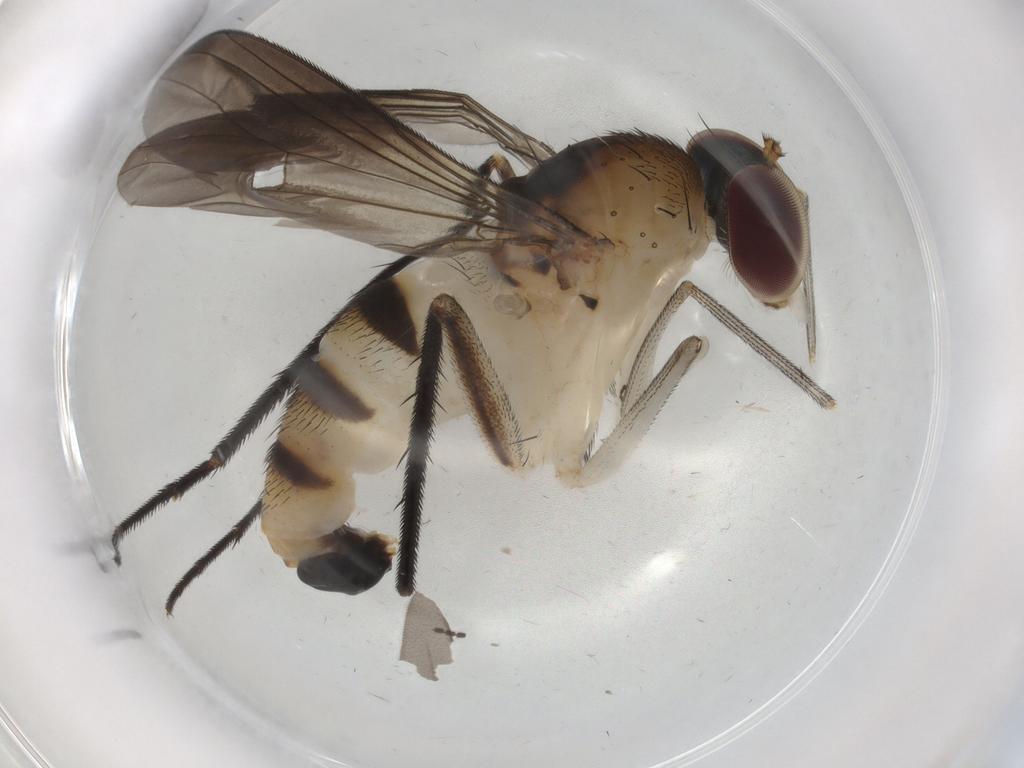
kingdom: Animalia
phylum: Arthropoda
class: Insecta
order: Diptera
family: Dolichopodidae
